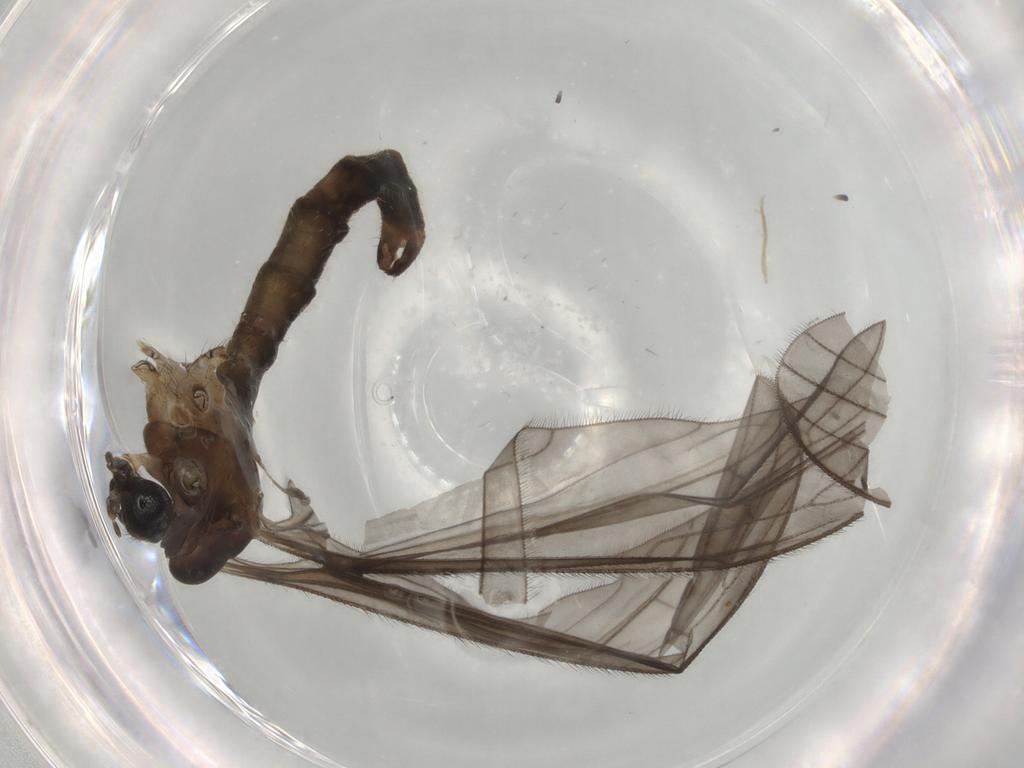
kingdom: Animalia
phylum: Arthropoda
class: Insecta
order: Diptera
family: Limoniidae
